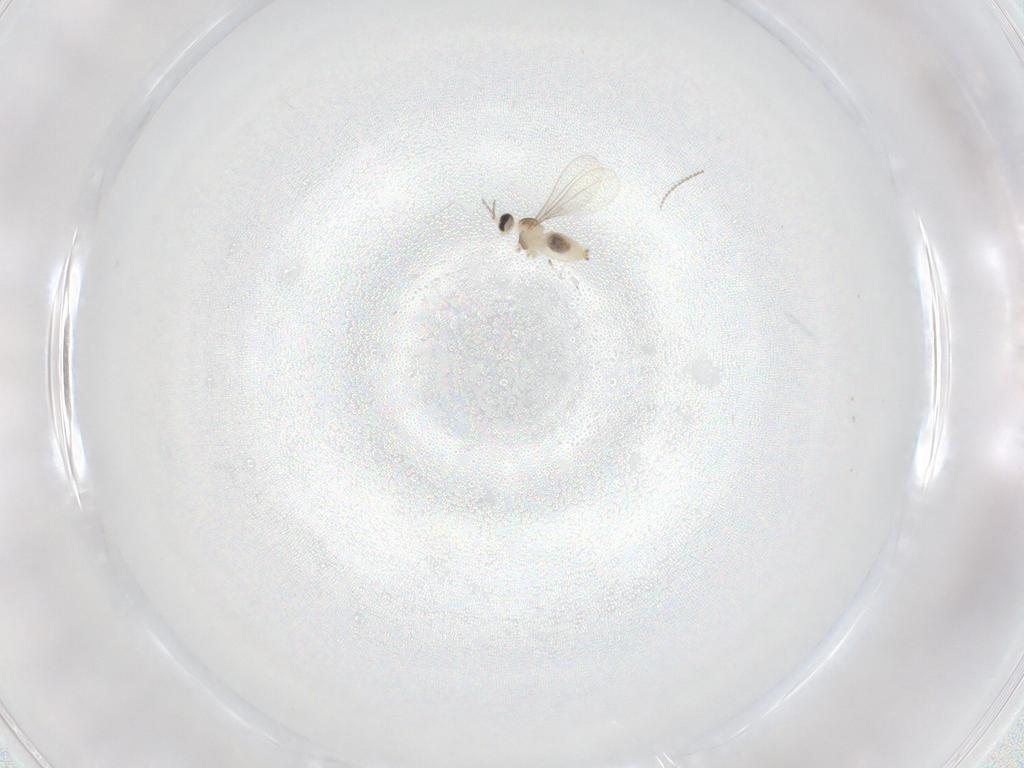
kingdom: Animalia
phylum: Arthropoda
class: Insecta
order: Diptera
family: Cecidomyiidae
